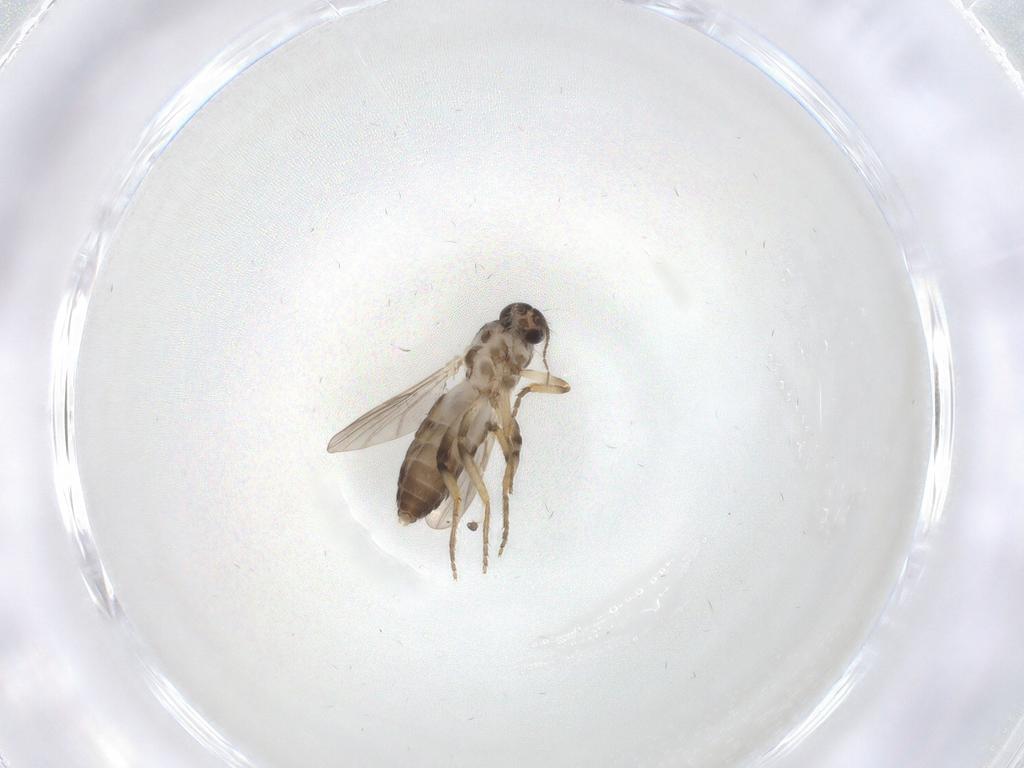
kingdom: Animalia
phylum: Arthropoda
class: Insecta
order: Diptera
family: Ceratopogonidae
